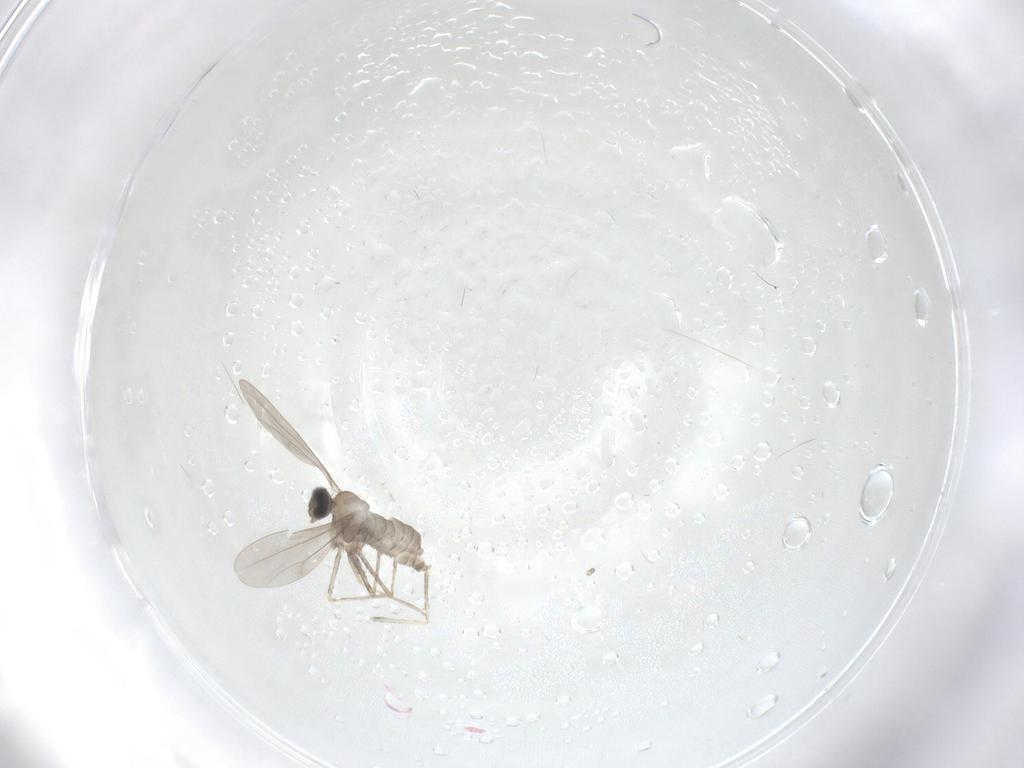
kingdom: Animalia
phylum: Arthropoda
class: Insecta
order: Diptera
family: Cecidomyiidae
